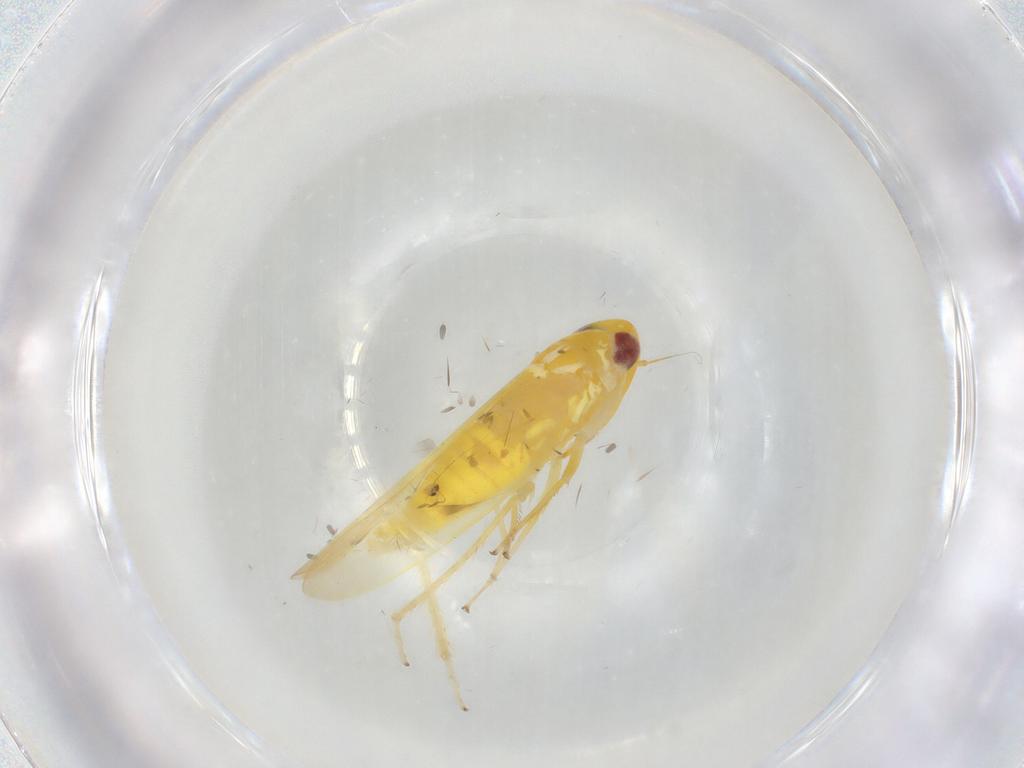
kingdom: Animalia
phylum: Arthropoda
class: Insecta
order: Hemiptera
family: Cicadellidae
